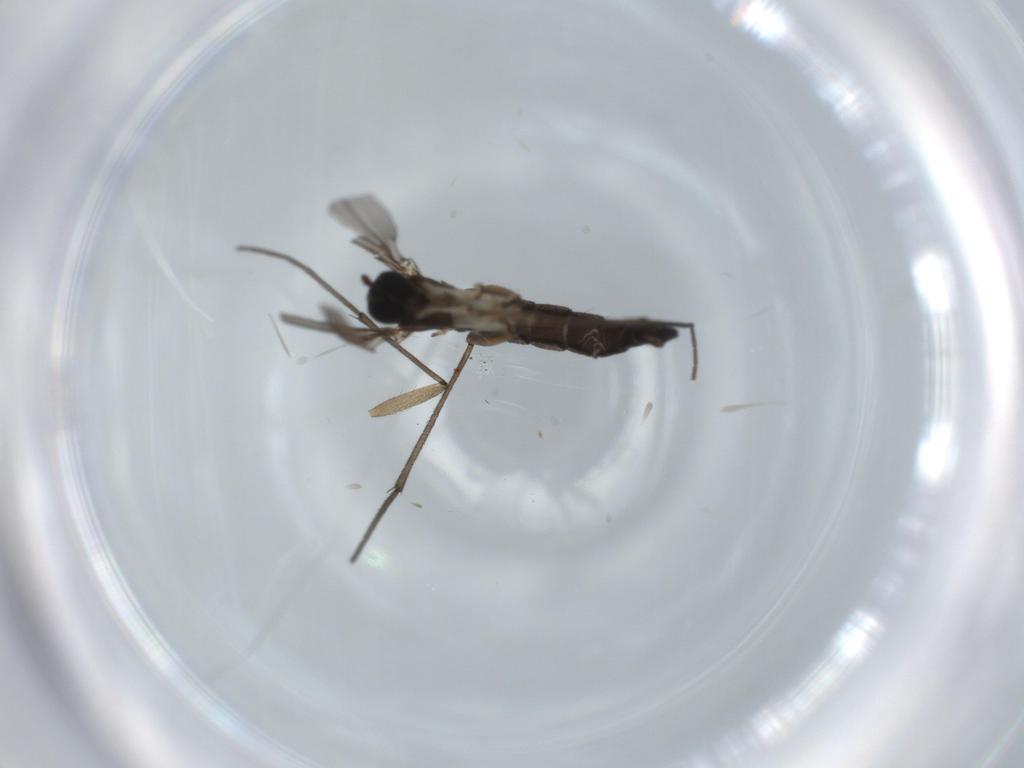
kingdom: Animalia
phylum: Arthropoda
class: Insecta
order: Diptera
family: Sciaridae
